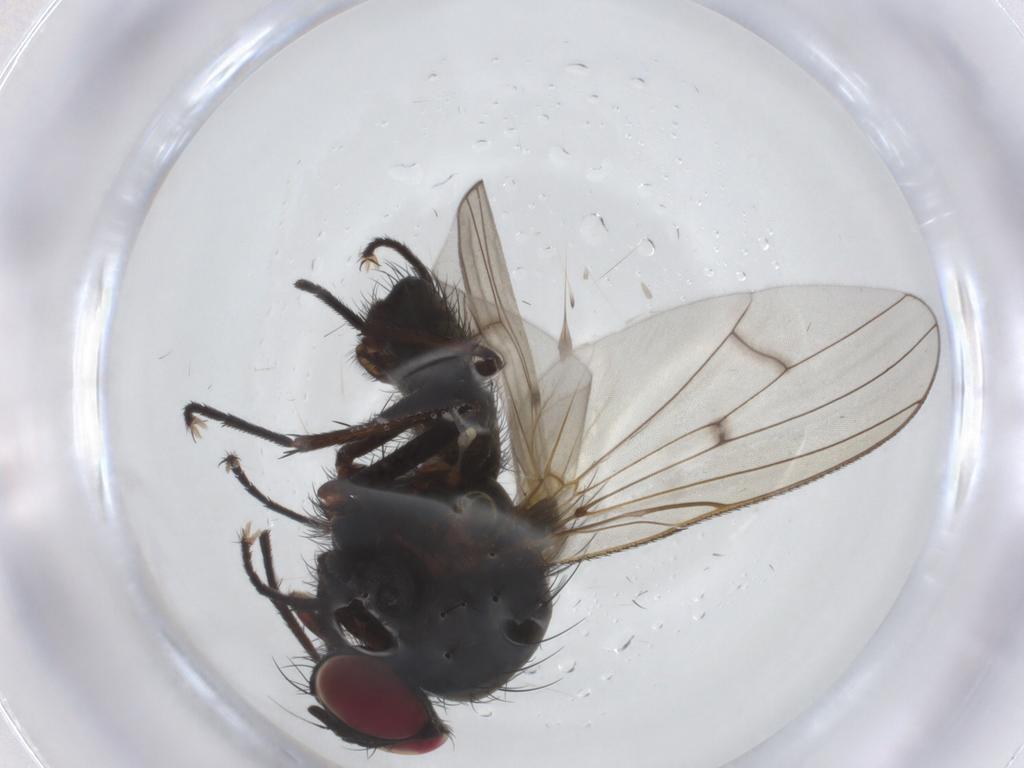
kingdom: Animalia
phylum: Arthropoda
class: Insecta
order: Diptera
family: Anthomyiidae
